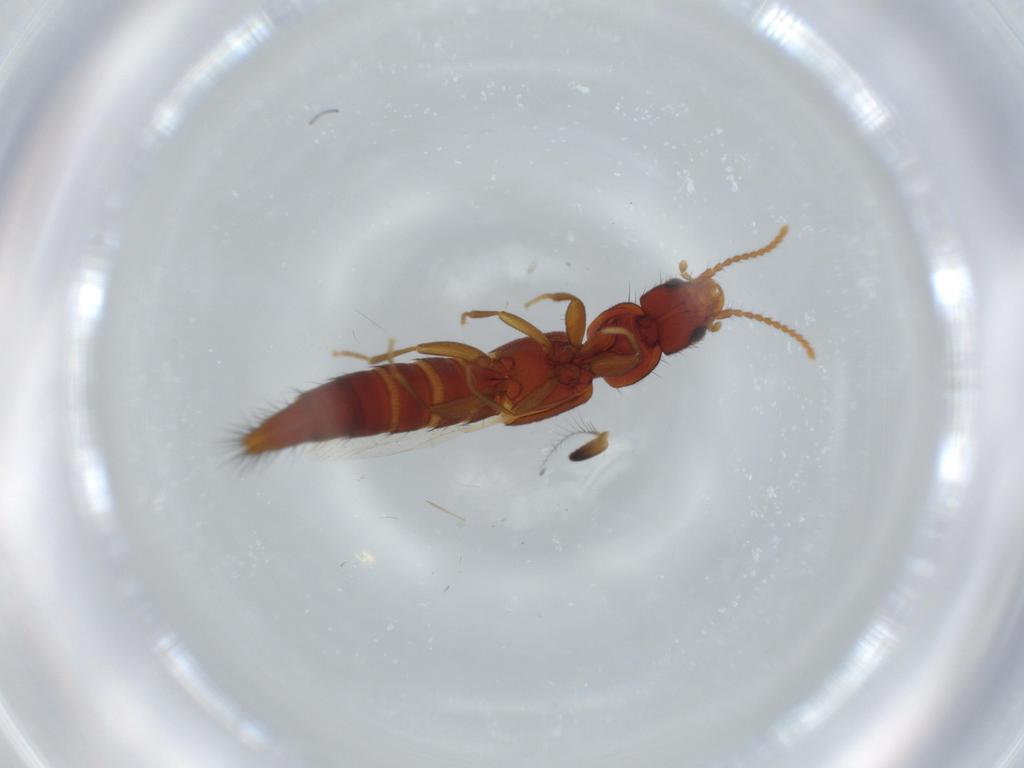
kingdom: Animalia
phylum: Arthropoda
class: Insecta
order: Coleoptera
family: Staphylinidae
